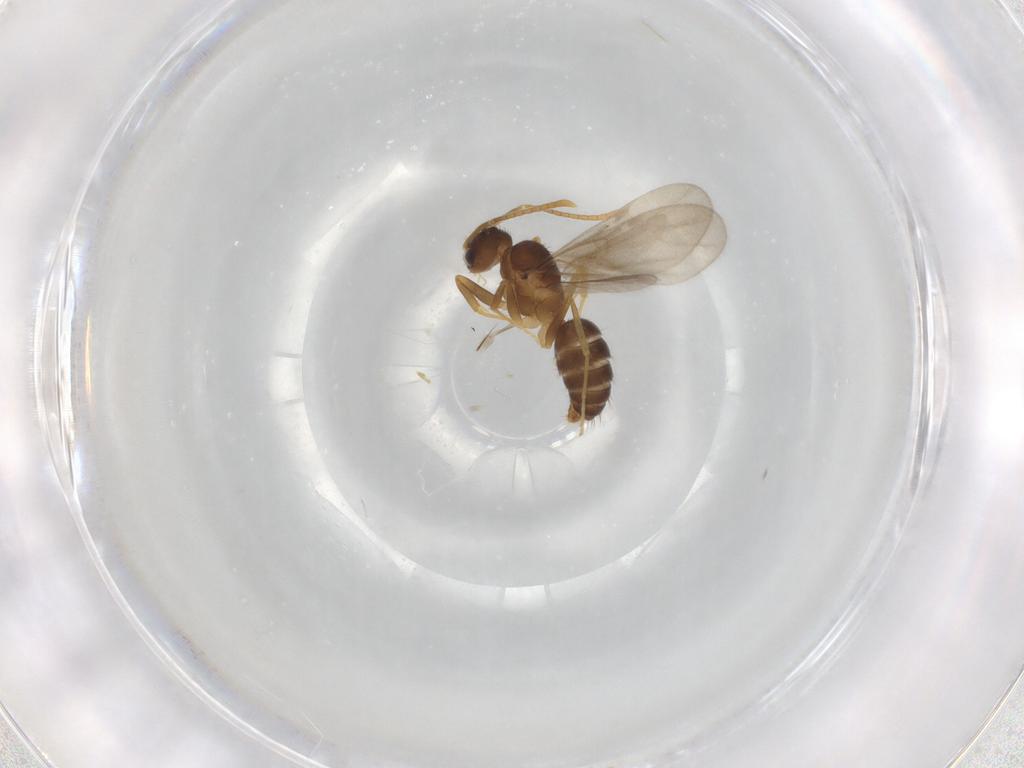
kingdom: Animalia
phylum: Arthropoda
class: Insecta
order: Hymenoptera
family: Formicidae
